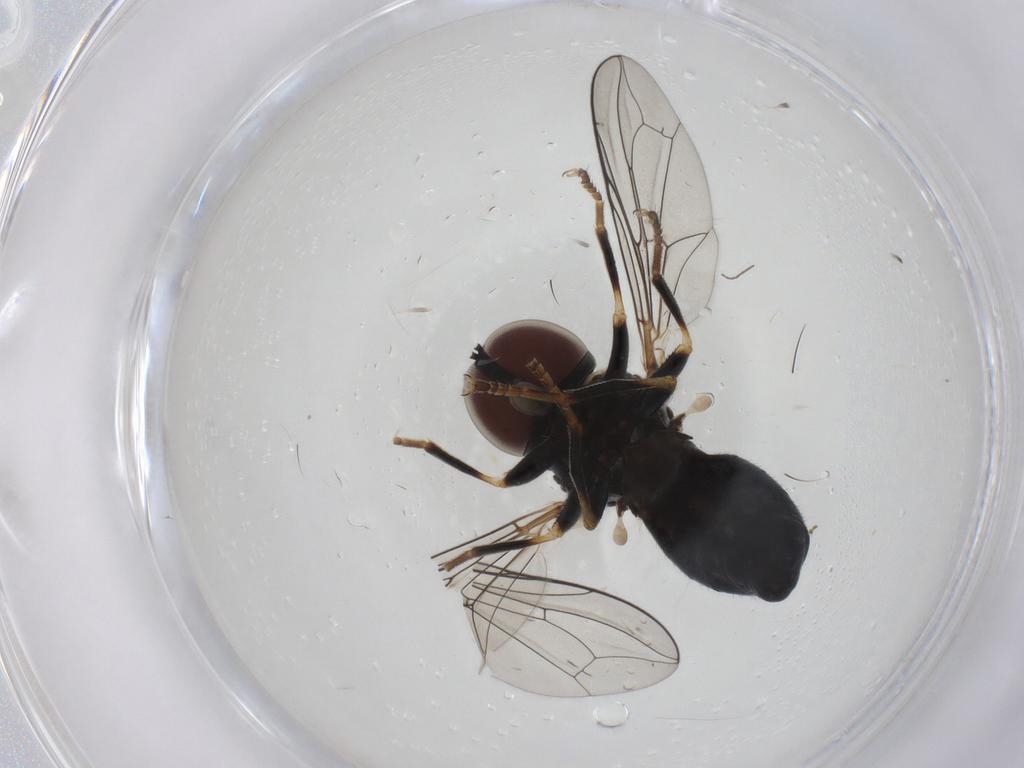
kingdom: Animalia
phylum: Arthropoda
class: Insecta
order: Diptera
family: Pipunculidae
